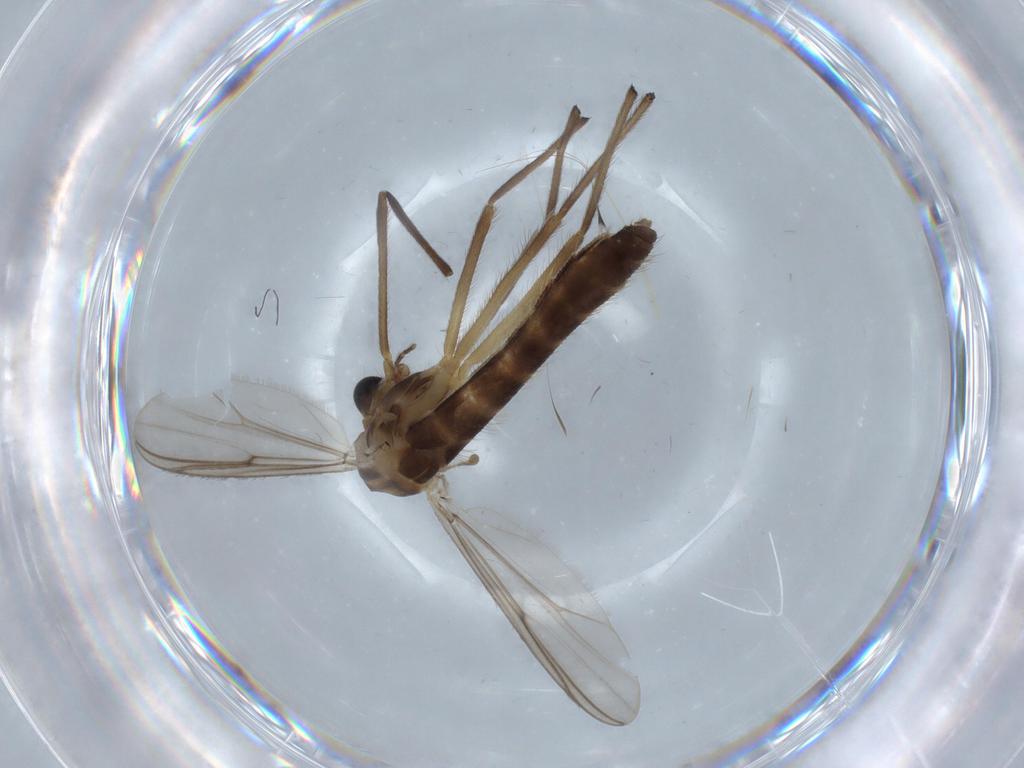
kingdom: Animalia
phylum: Arthropoda
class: Insecta
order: Diptera
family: Chironomidae
